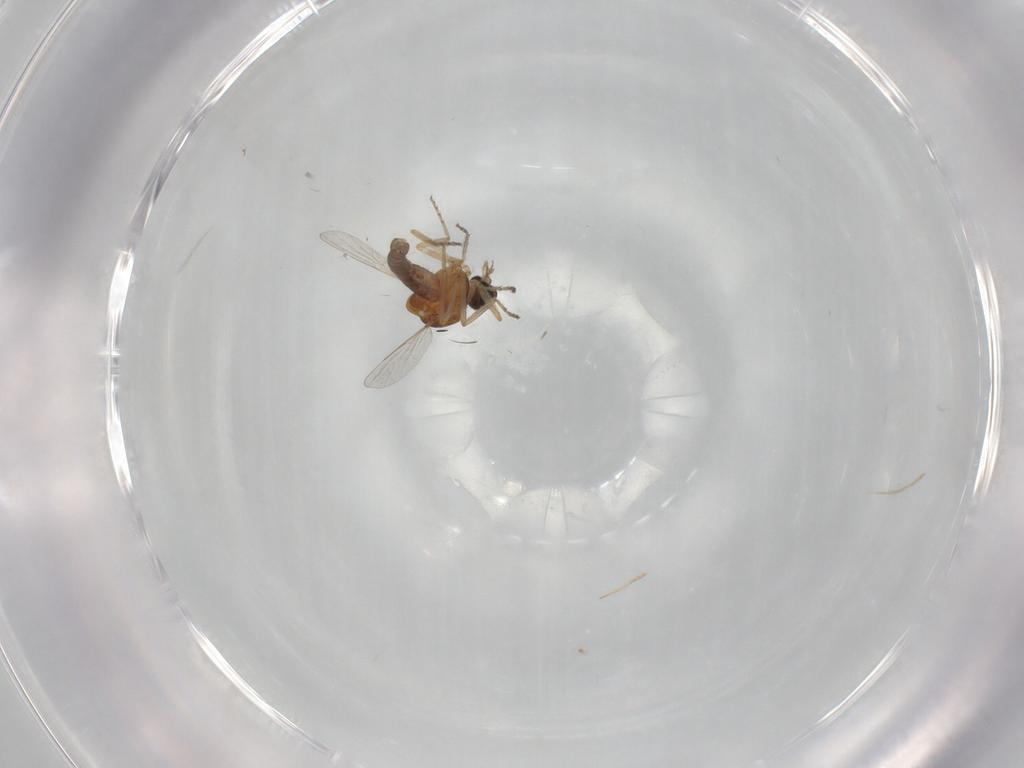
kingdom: Animalia
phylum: Arthropoda
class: Insecta
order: Diptera
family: Ceratopogonidae
